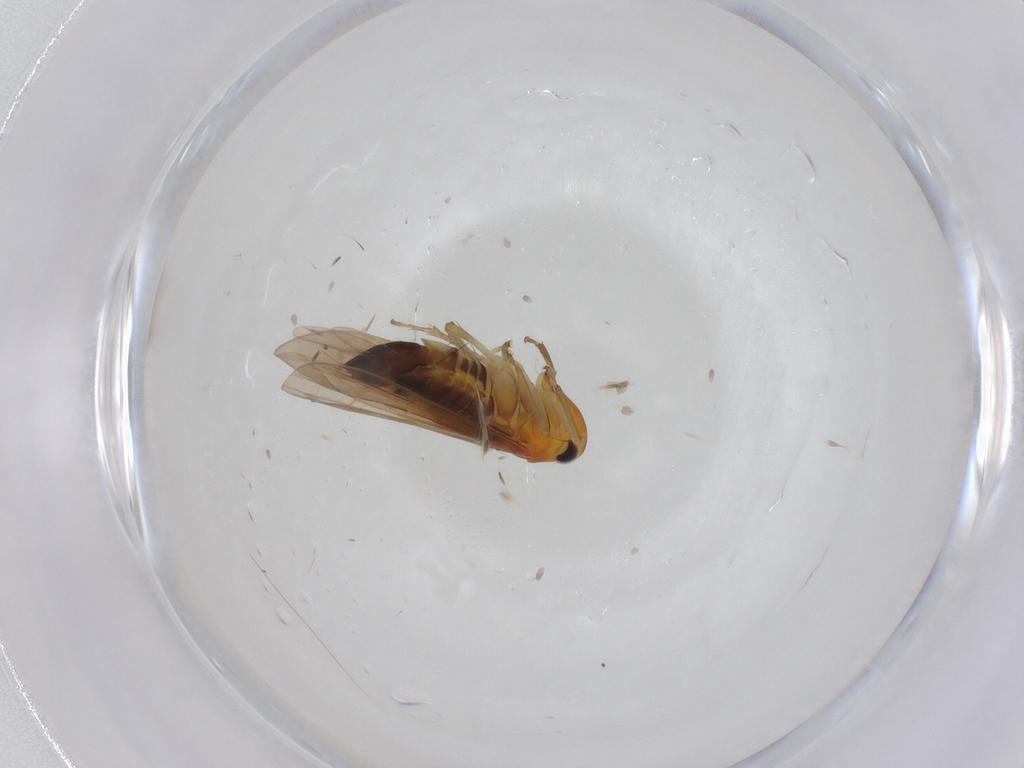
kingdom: Animalia
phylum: Arthropoda
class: Insecta
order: Hemiptera
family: Cicadellidae
